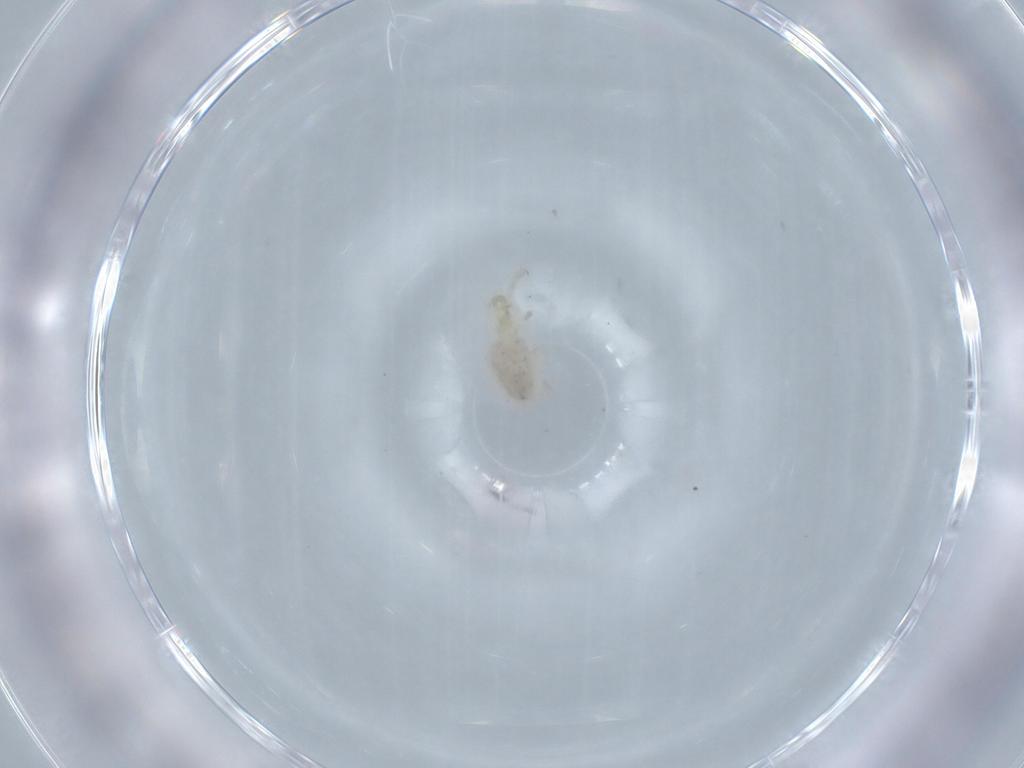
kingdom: Animalia
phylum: Arthropoda
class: Arachnida
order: Sarcoptiformes
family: Phenopelopidae
